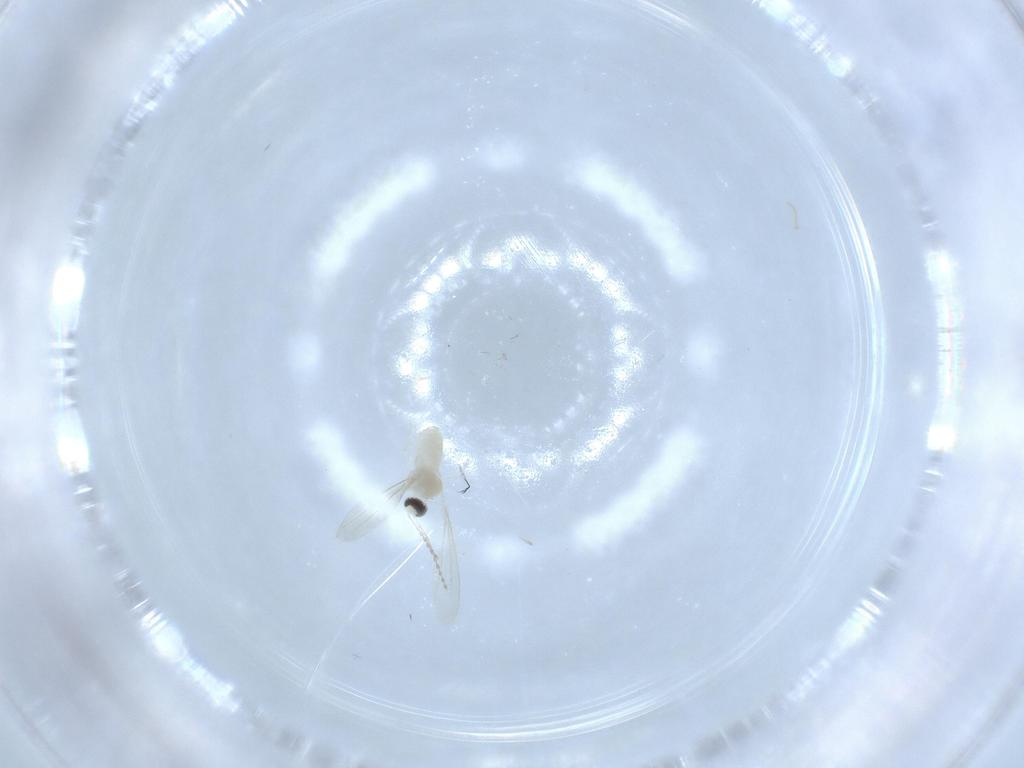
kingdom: Animalia
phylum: Arthropoda
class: Insecta
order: Diptera
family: Cecidomyiidae
